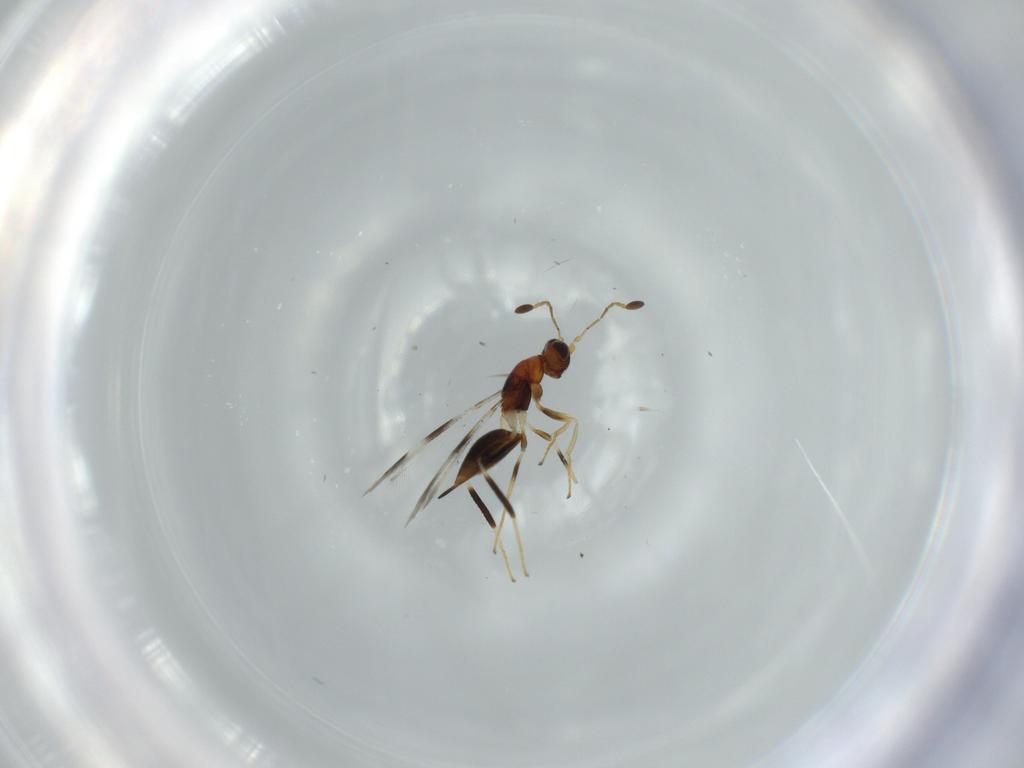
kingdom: Animalia
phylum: Arthropoda
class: Insecta
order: Hymenoptera
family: Mymaridae
